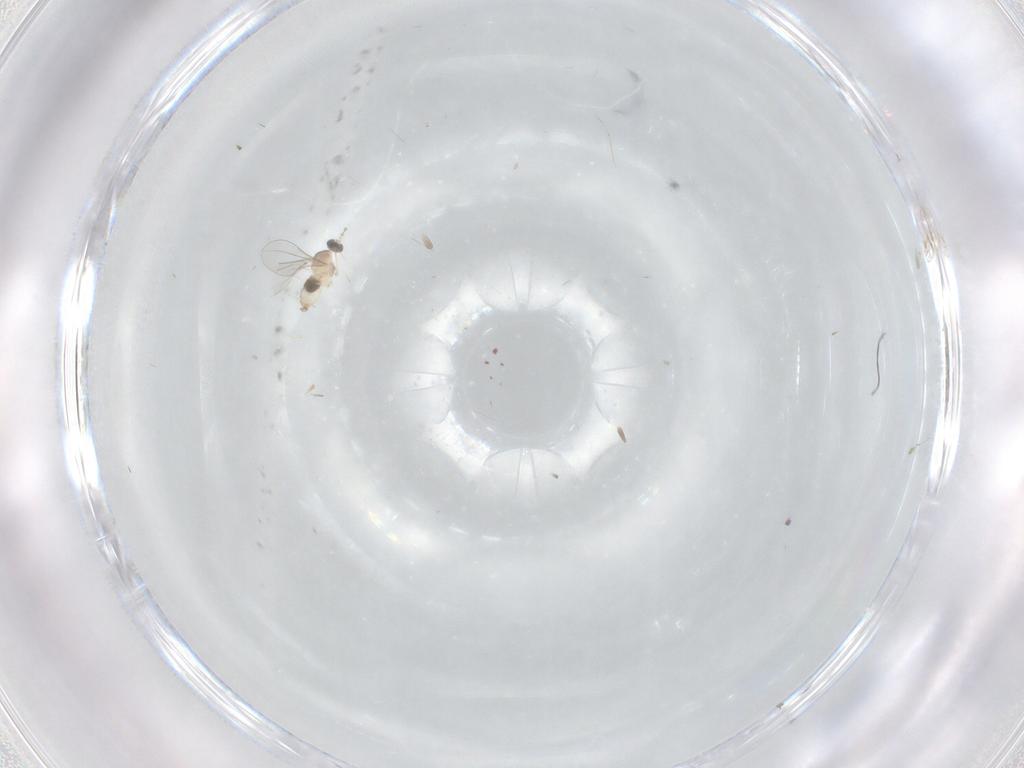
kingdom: Animalia
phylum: Arthropoda
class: Insecta
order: Diptera
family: Cecidomyiidae
